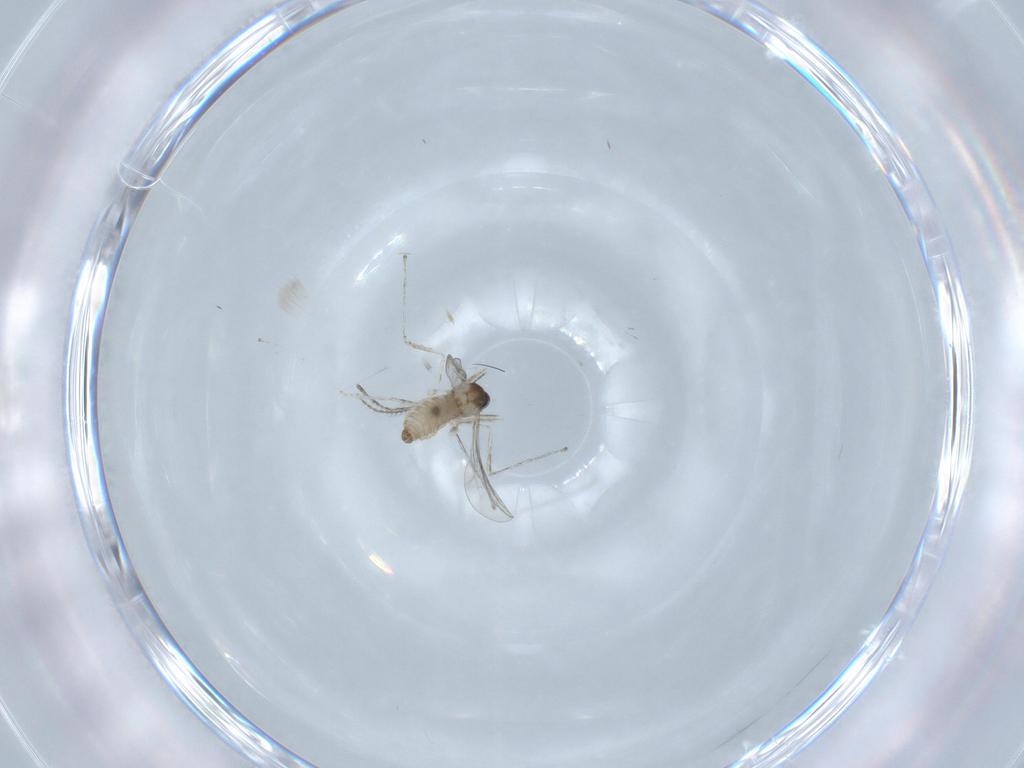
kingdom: Animalia
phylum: Arthropoda
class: Insecta
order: Diptera
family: Cecidomyiidae
